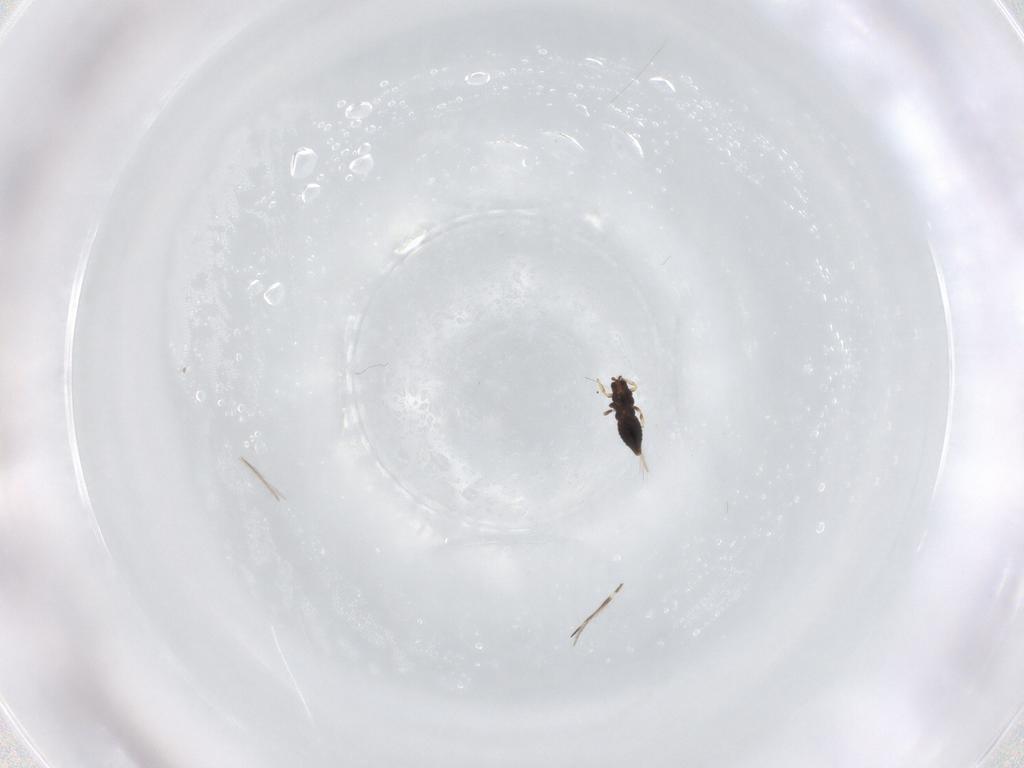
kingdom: Animalia
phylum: Arthropoda
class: Insecta
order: Thysanoptera
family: Thripidae
